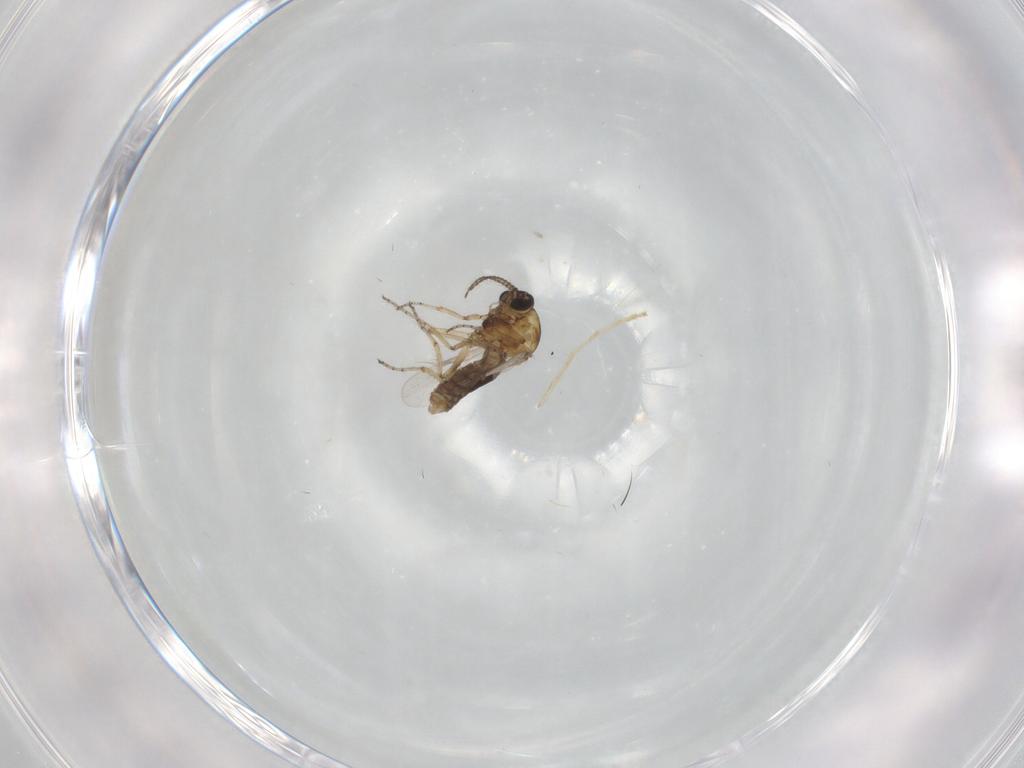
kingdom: Animalia
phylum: Arthropoda
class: Insecta
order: Diptera
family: Ceratopogonidae
